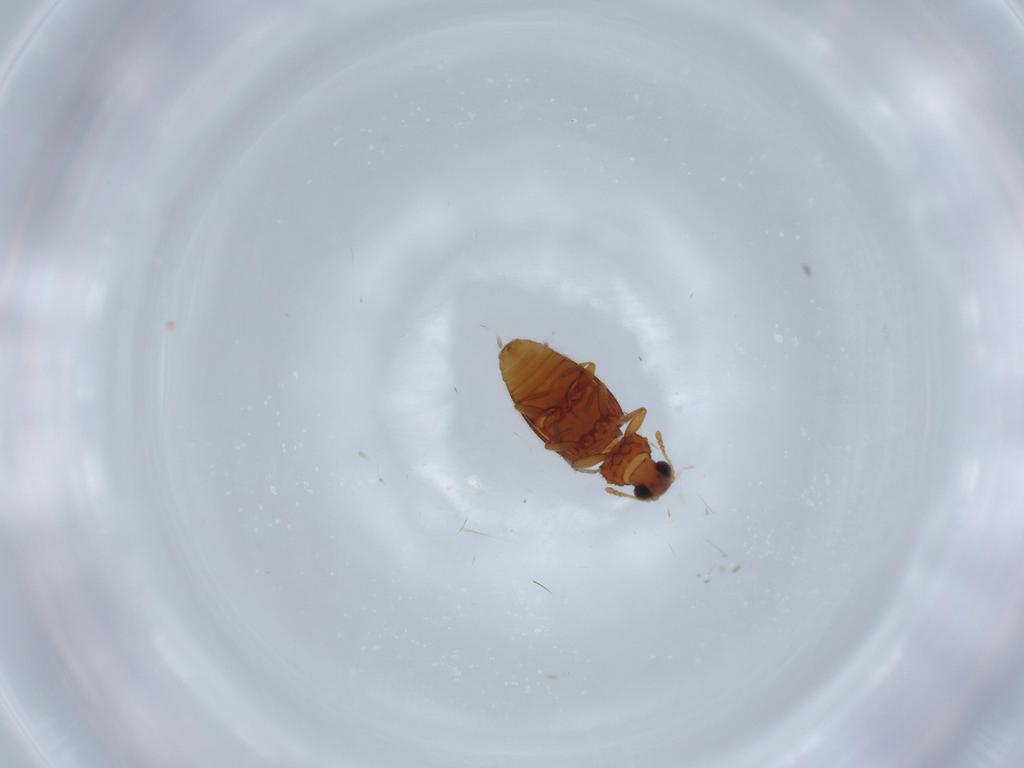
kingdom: Animalia
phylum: Arthropoda
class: Insecta
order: Coleoptera
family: Latridiidae
